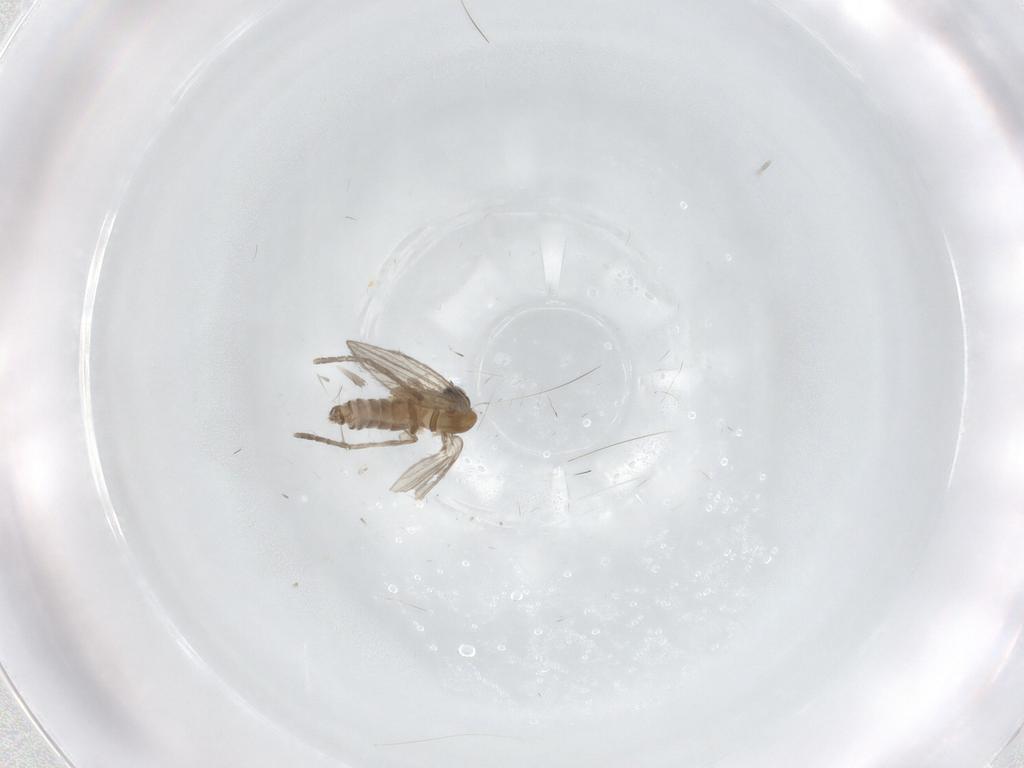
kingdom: Animalia
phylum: Arthropoda
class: Insecta
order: Diptera
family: Psychodidae
